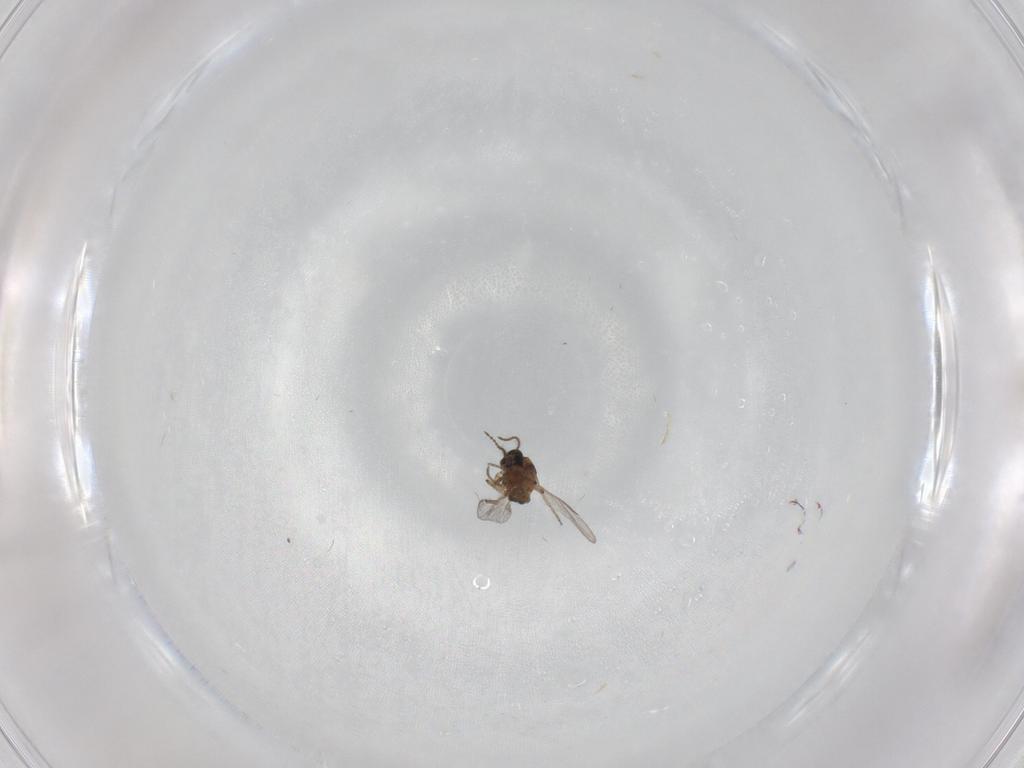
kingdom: Animalia
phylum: Arthropoda
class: Insecta
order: Diptera
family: Ceratopogonidae
